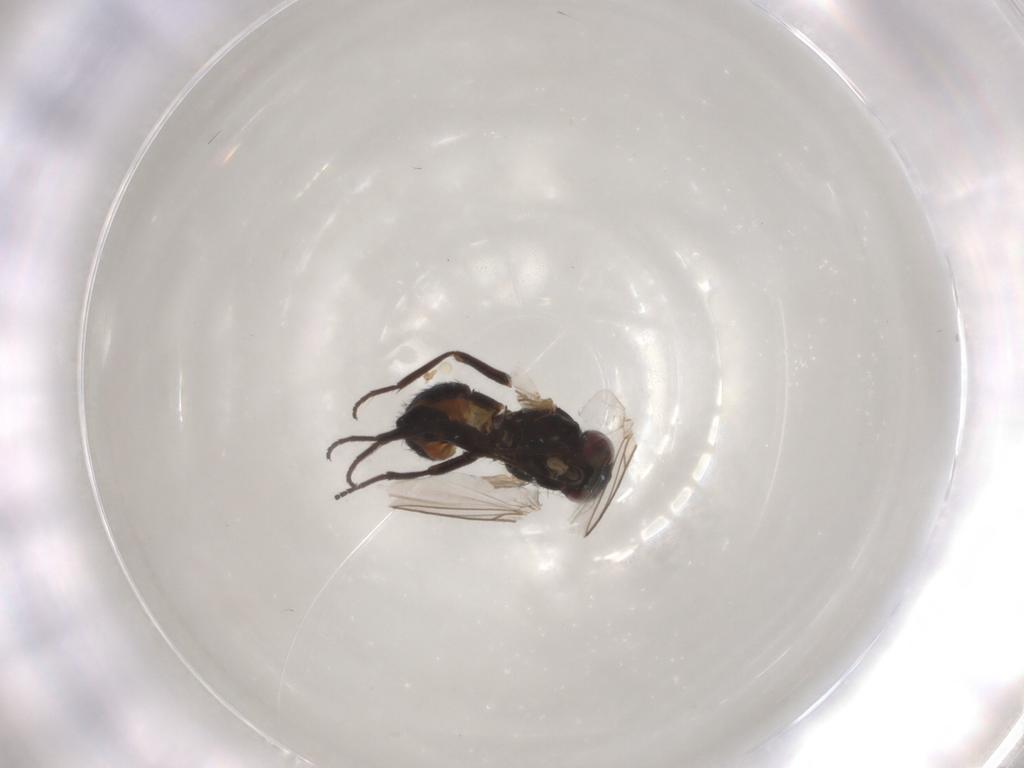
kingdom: Animalia
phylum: Arthropoda
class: Insecta
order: Diptera
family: Agromyzidae
